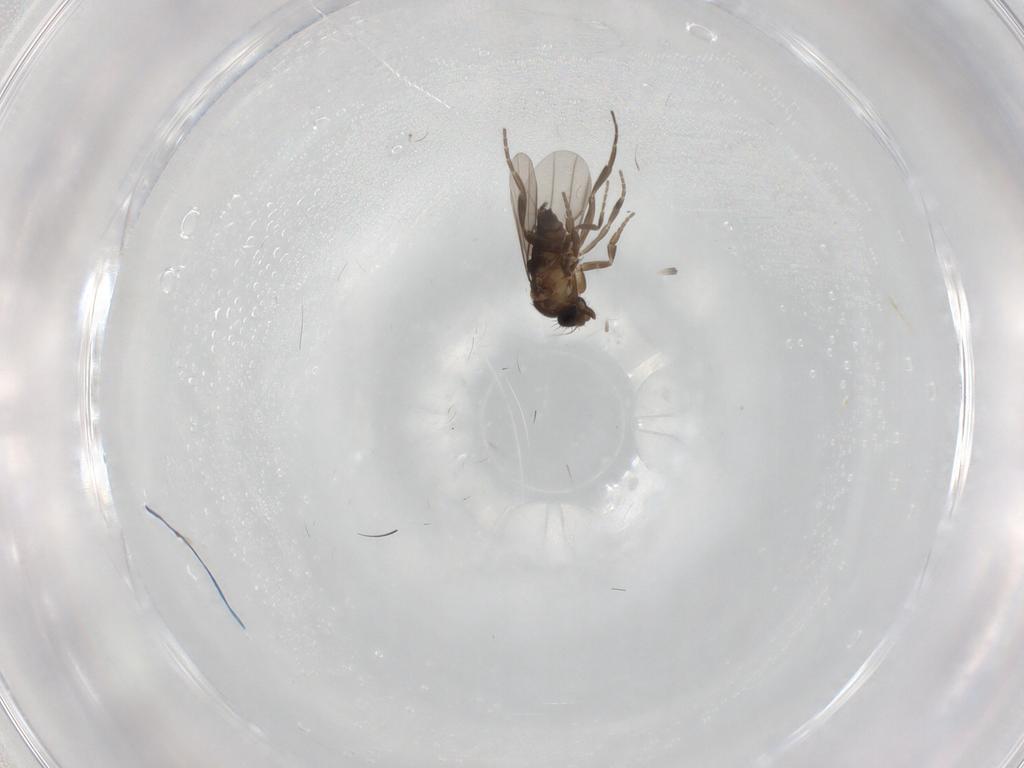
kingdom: Animalia
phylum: Arthropoda
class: Insecta
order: Diptera
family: Phoridae
